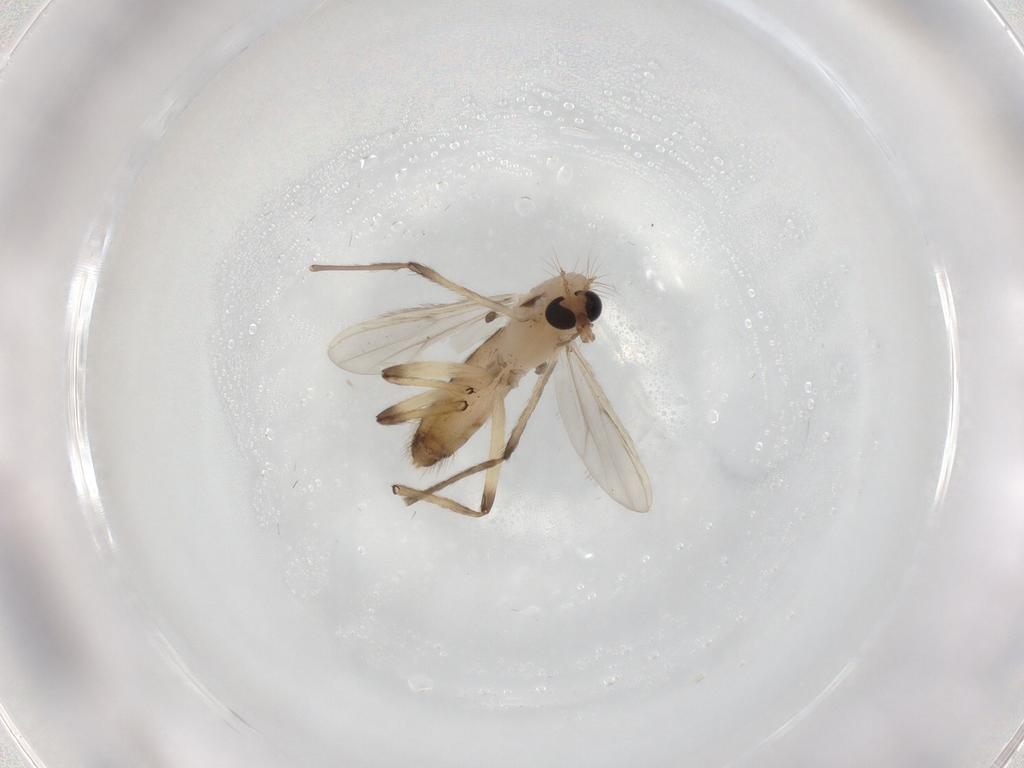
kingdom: Animalia
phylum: Arthropoda
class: Insecta
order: Diptera
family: Chironomidae
